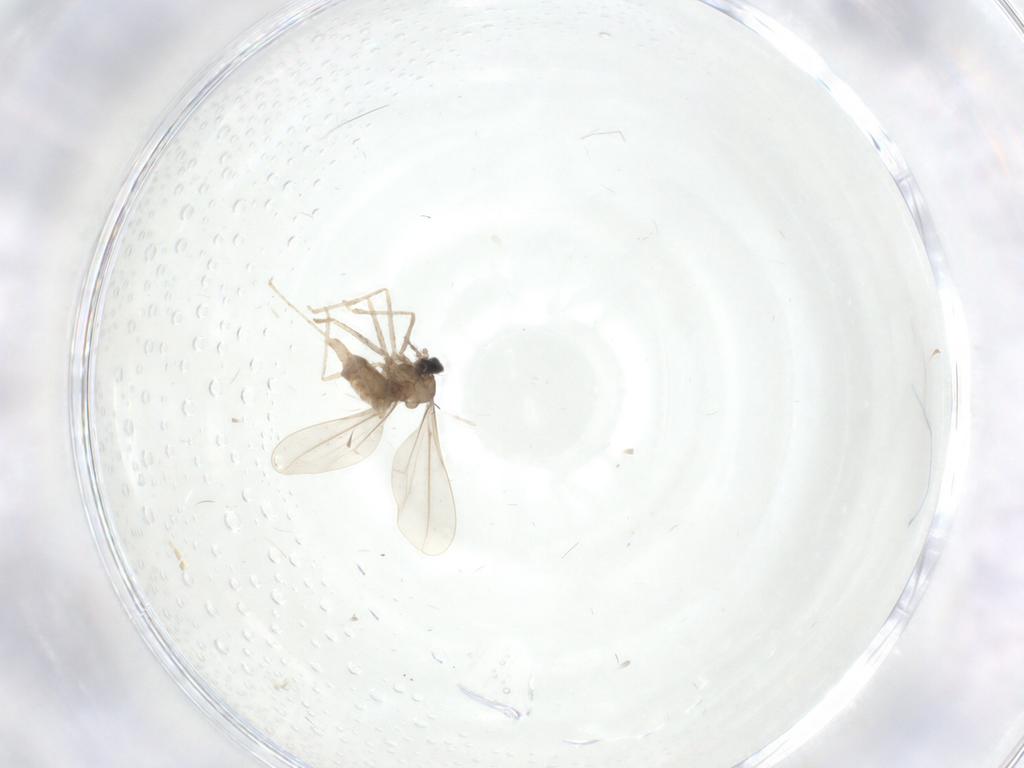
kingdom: Animalia
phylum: Arthropoda
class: Insecta
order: Diptera
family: Cecidomyiidae
